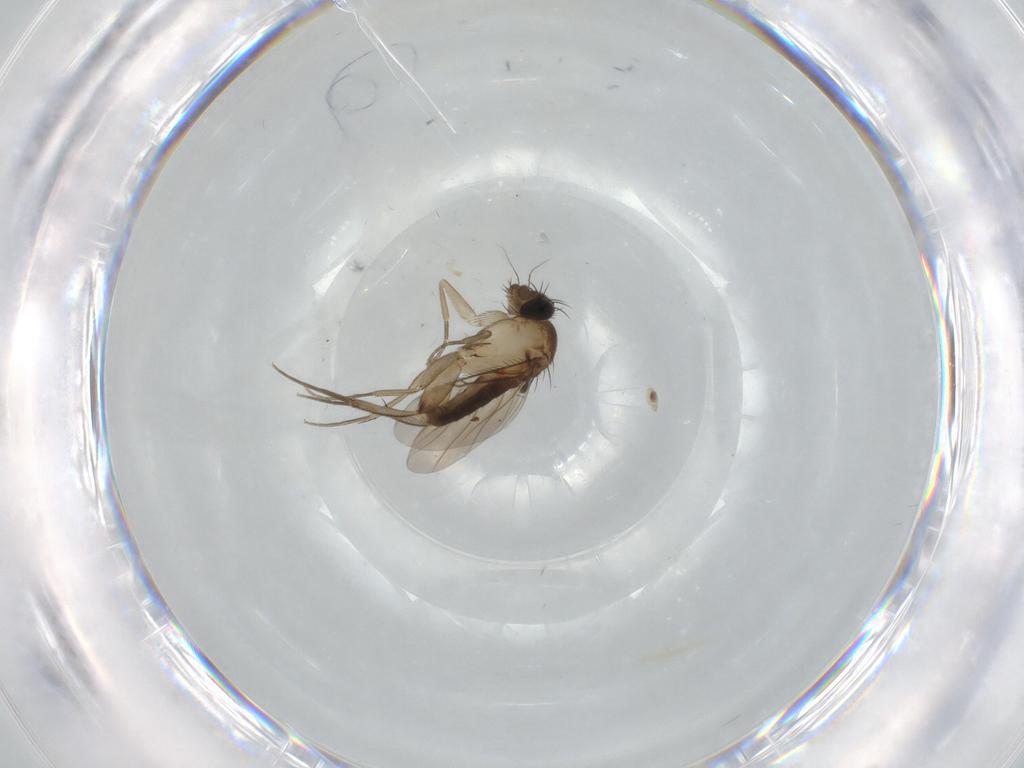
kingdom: Animalia
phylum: Arthropoda
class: Insecta
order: Diptera
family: Phoridae
